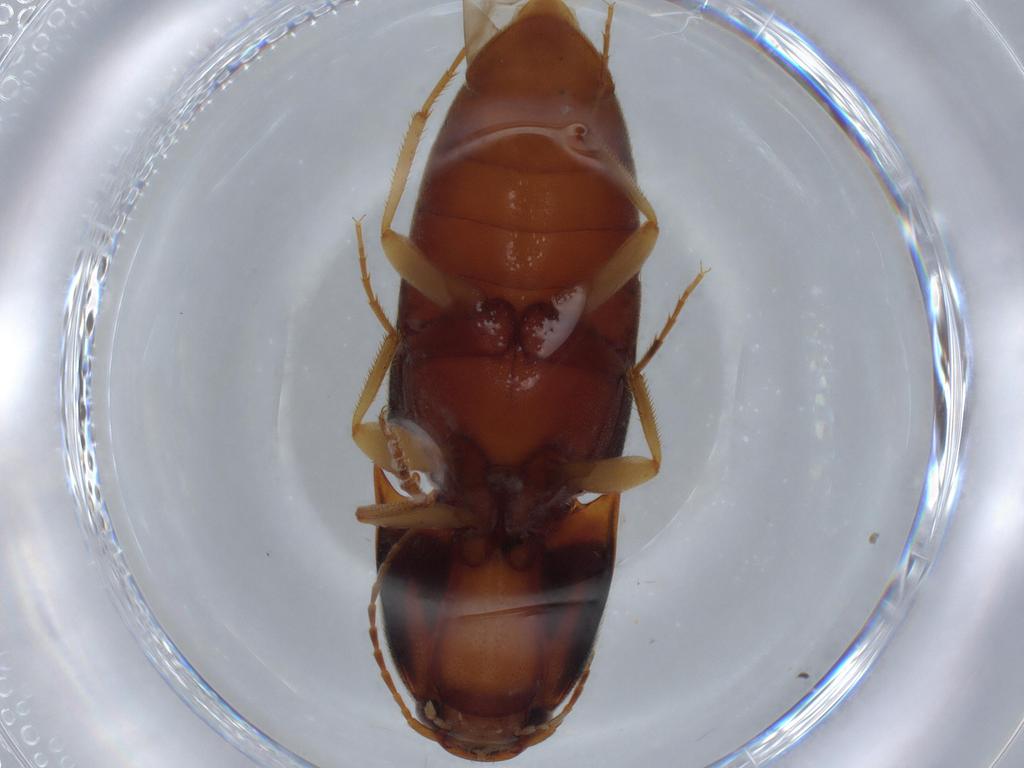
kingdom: Animalia
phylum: Arthropoda
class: Insecta
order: Coleoptera
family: Elateridae
